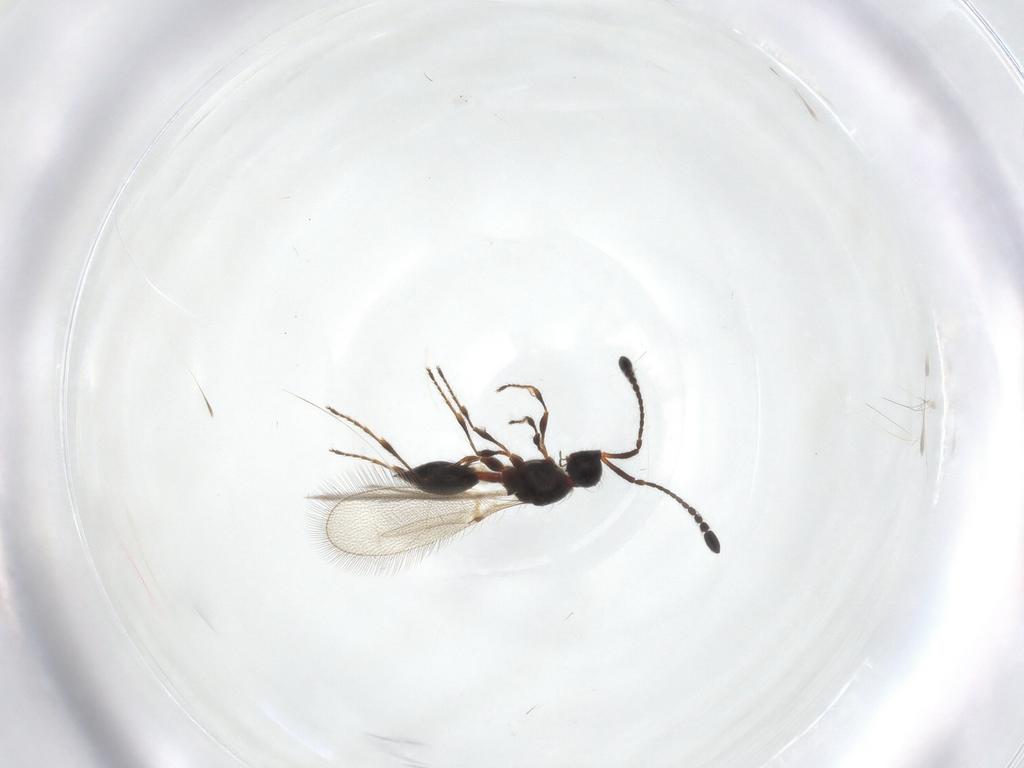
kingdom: Animalia
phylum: Arthropoda
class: Insecta
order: Hymenoptera
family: Diapriidae
